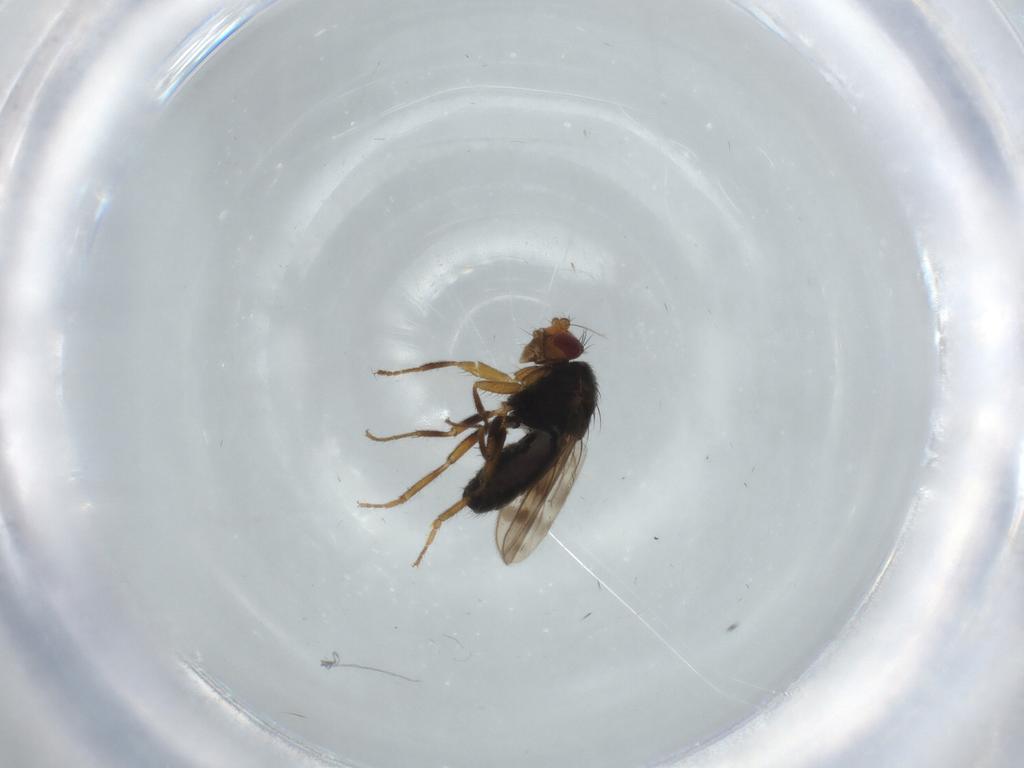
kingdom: Animalia
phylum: Arthropoda
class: Insecta
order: Diptera
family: Sphaeroceridae
